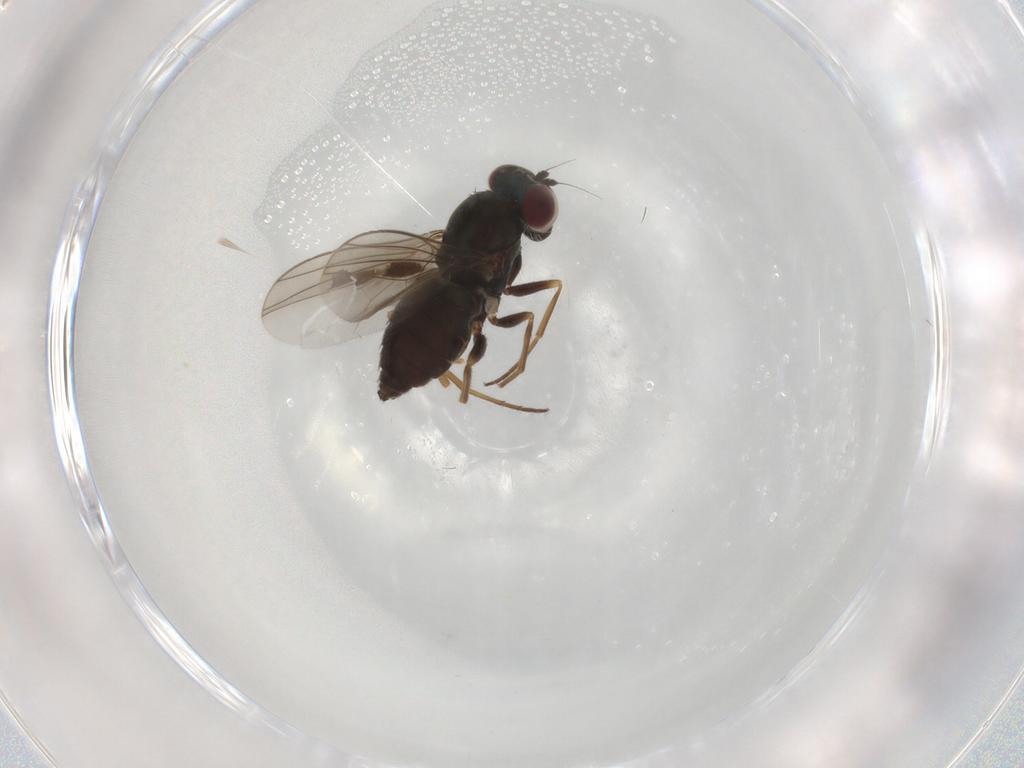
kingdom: Animalia
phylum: Arthropoda
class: Insecta
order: Diptera
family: Dolichopodidae
